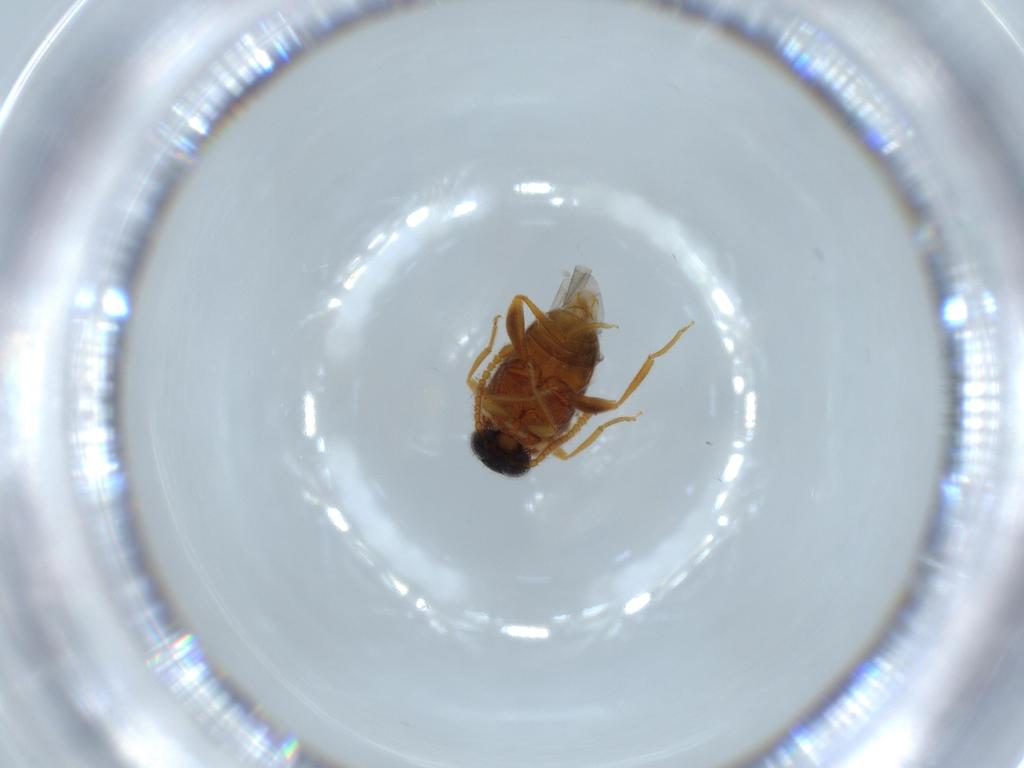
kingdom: Animalia
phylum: Arthropoda
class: Insecta
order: Coleoptera
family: Aderidae
